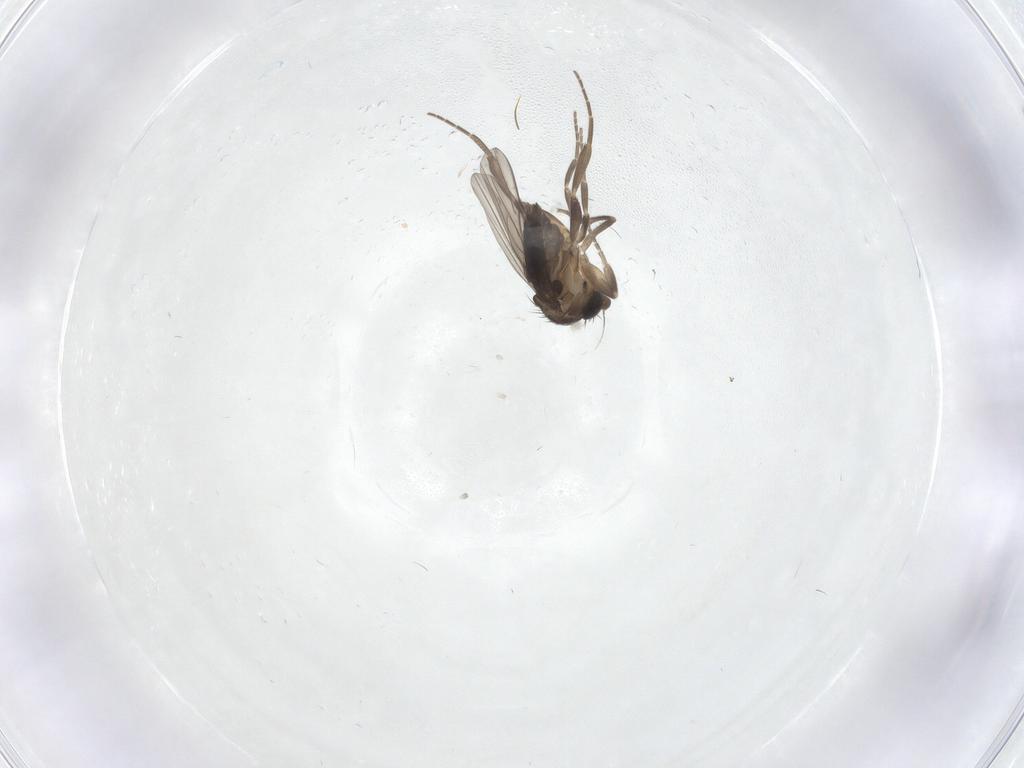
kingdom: Animalia
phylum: Arthropoda
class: Insecta
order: Diptera
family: Phoridae
